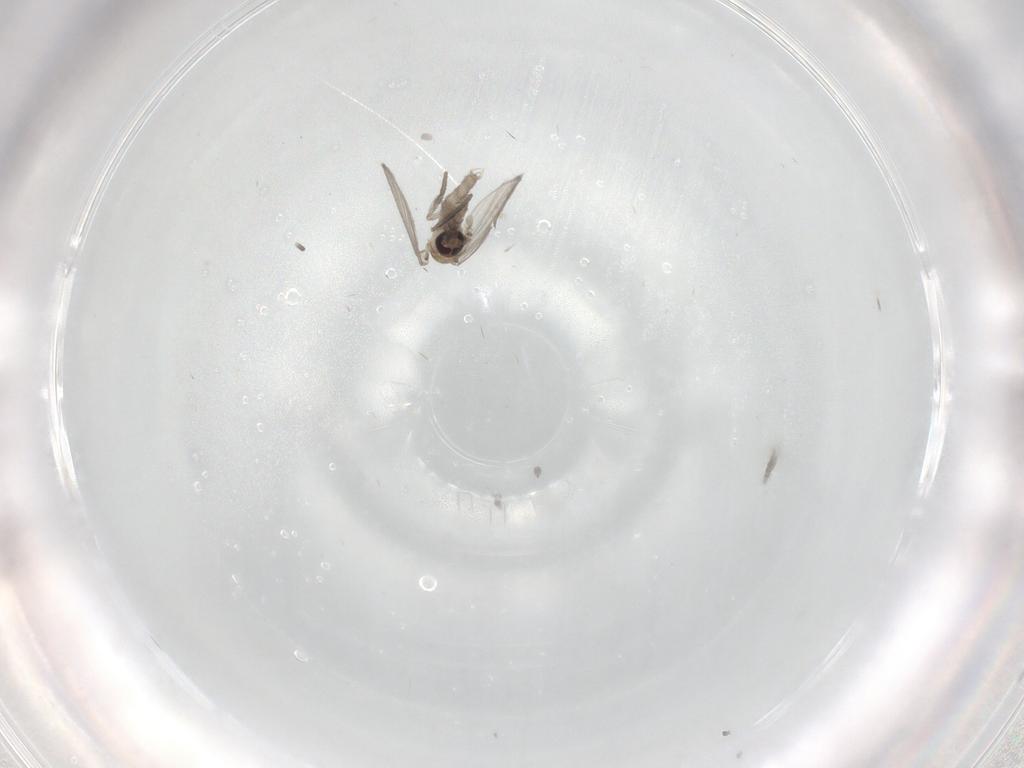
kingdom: Animalia
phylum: Arthropoda
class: Insecta
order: Diptera
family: Psychodidae
